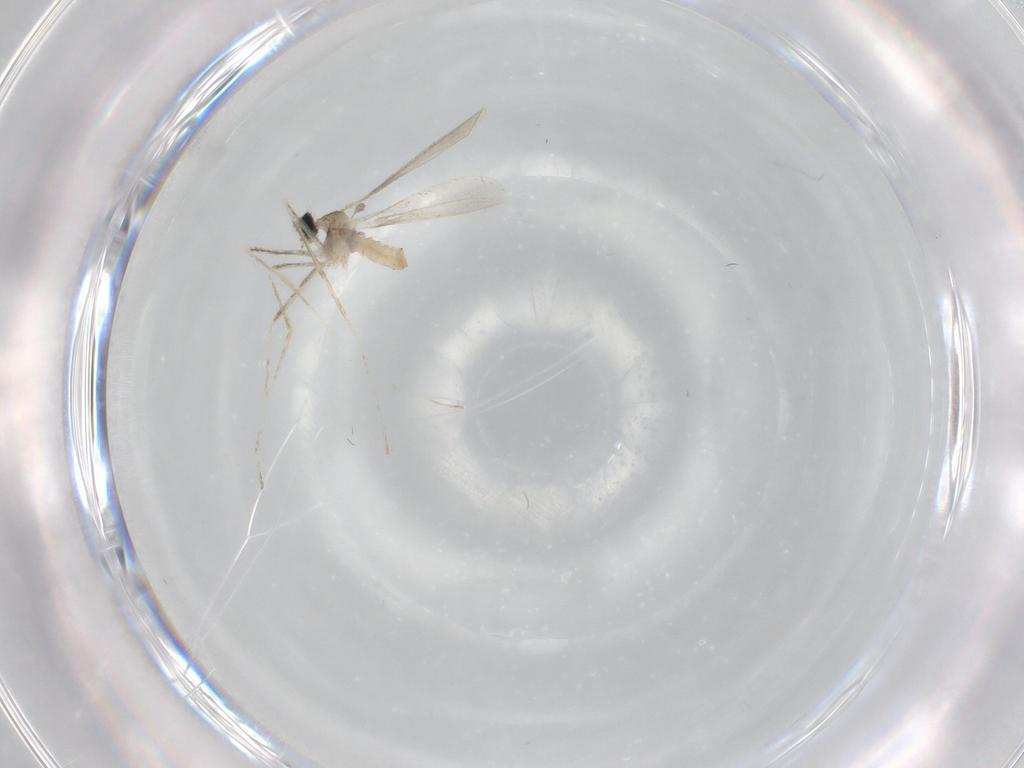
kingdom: Animalia
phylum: Arthropoda
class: Insecta
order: Diptera
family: Cecidomyiidae
